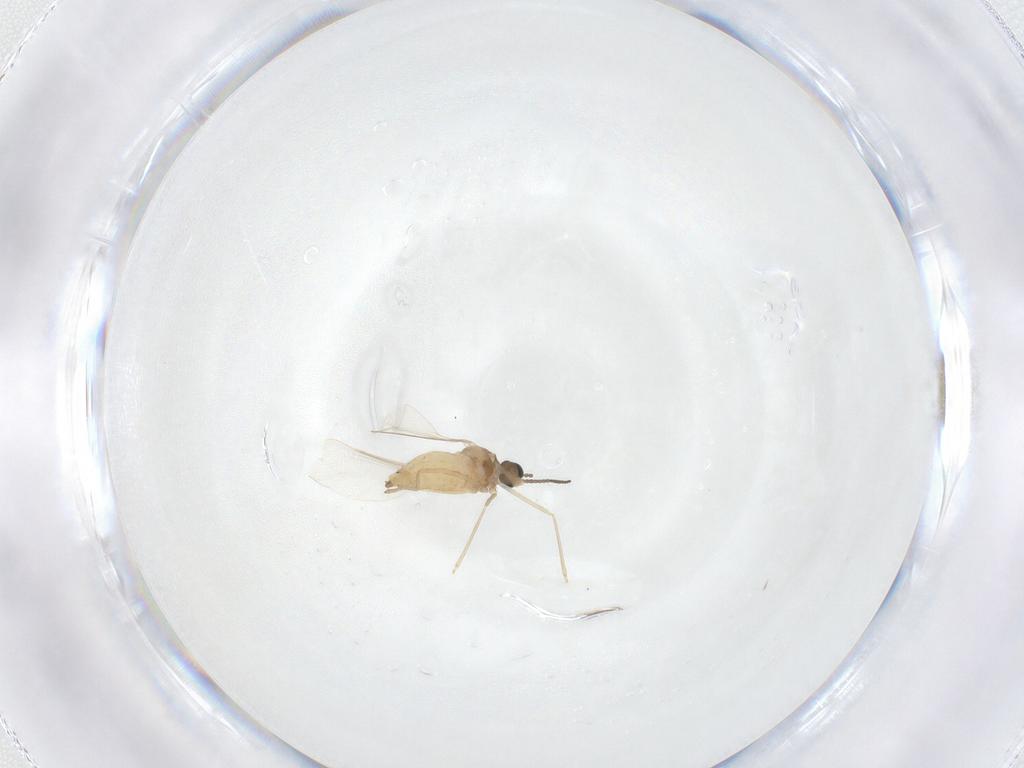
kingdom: Animalia
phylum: Arthropoda
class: Insecta
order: Diptera
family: Cecidomyiidae
